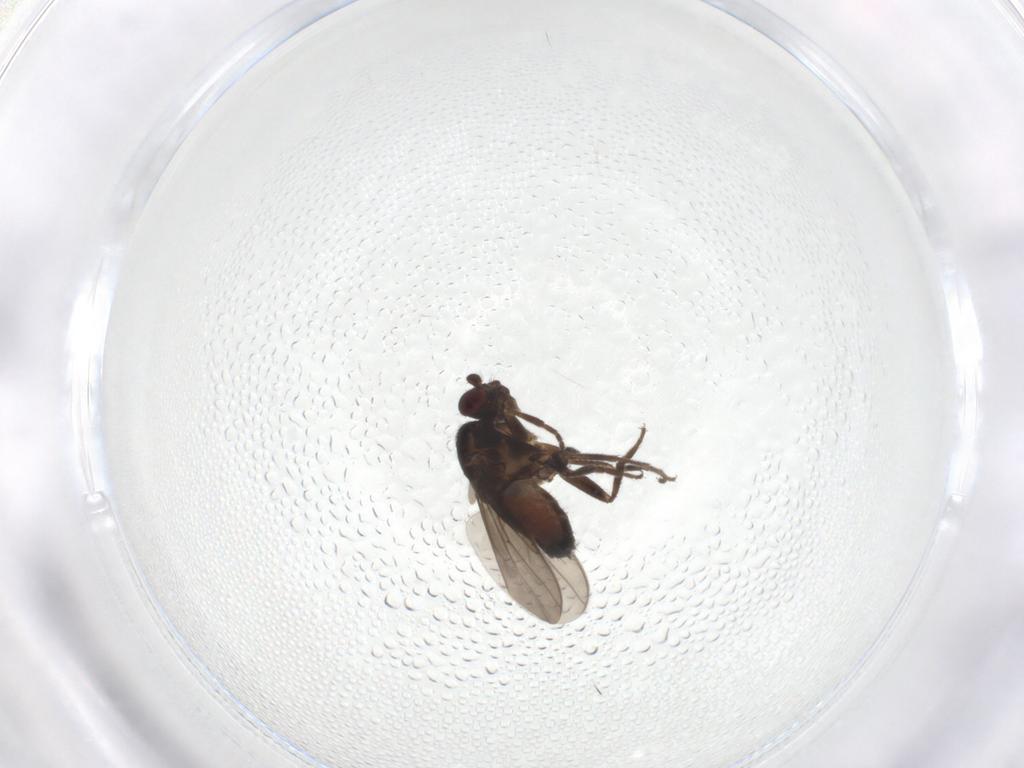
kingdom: Animalia
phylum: Arthropoda
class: Insecta
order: Diptera
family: Sphaeroceridae
